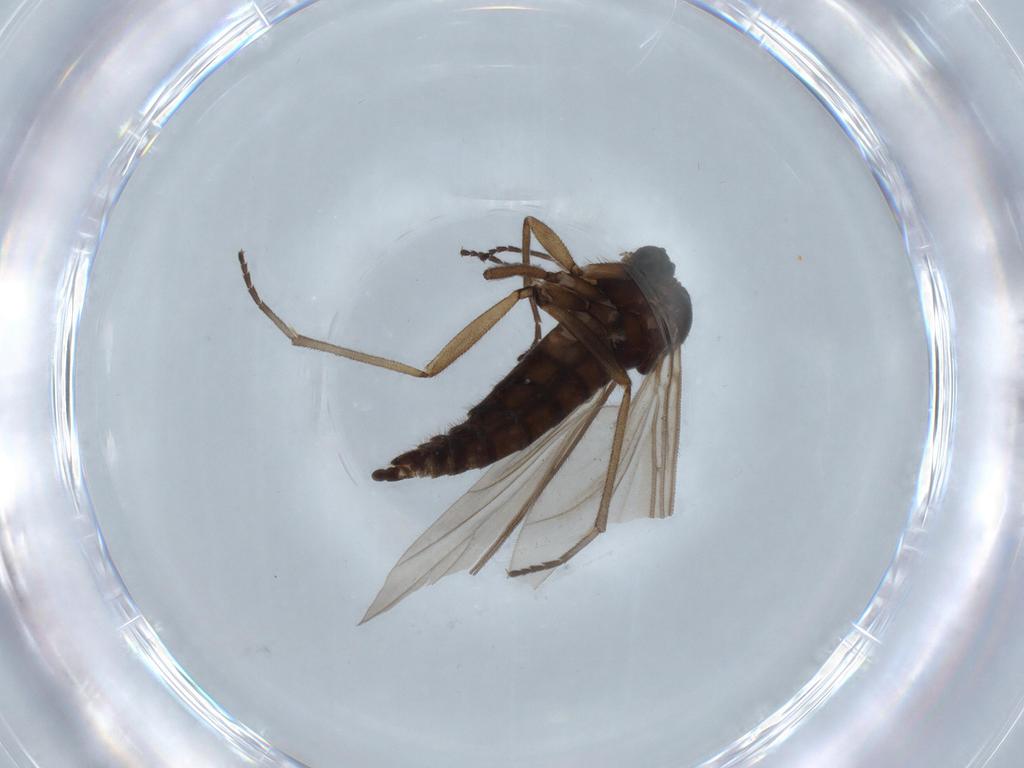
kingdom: Animalia
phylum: Arthropoda
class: Insecta
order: Diptera
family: Sciaridae
